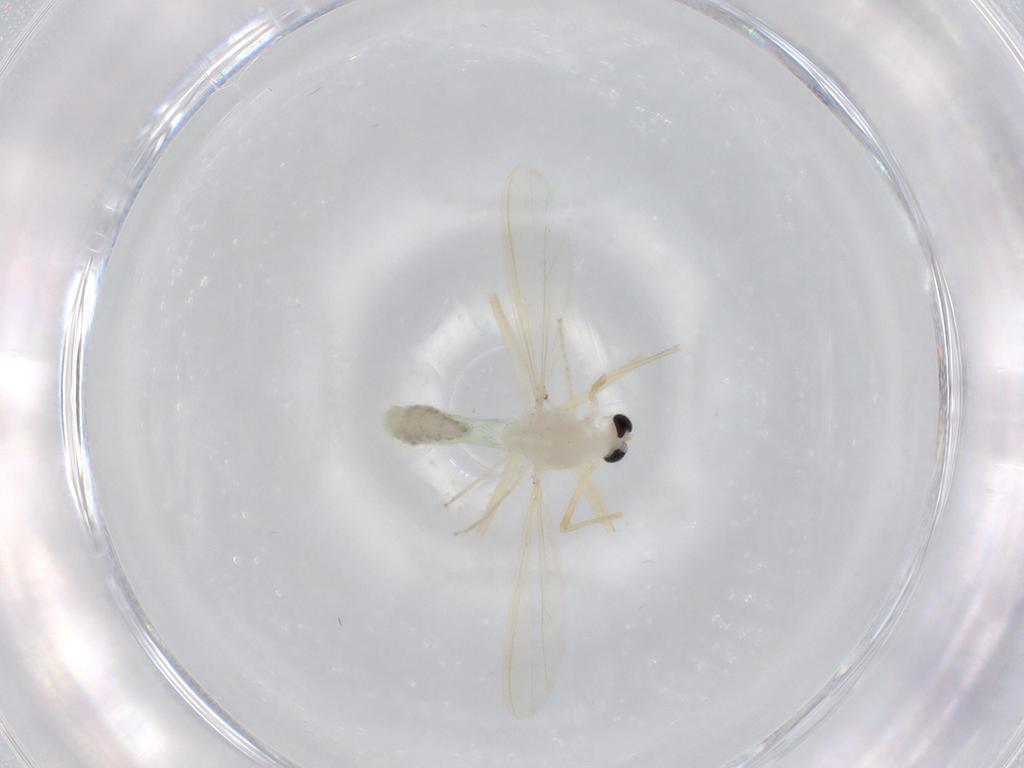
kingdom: Animalia
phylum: Arthropoda
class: Insecta
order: Diptera
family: Chironomidae
